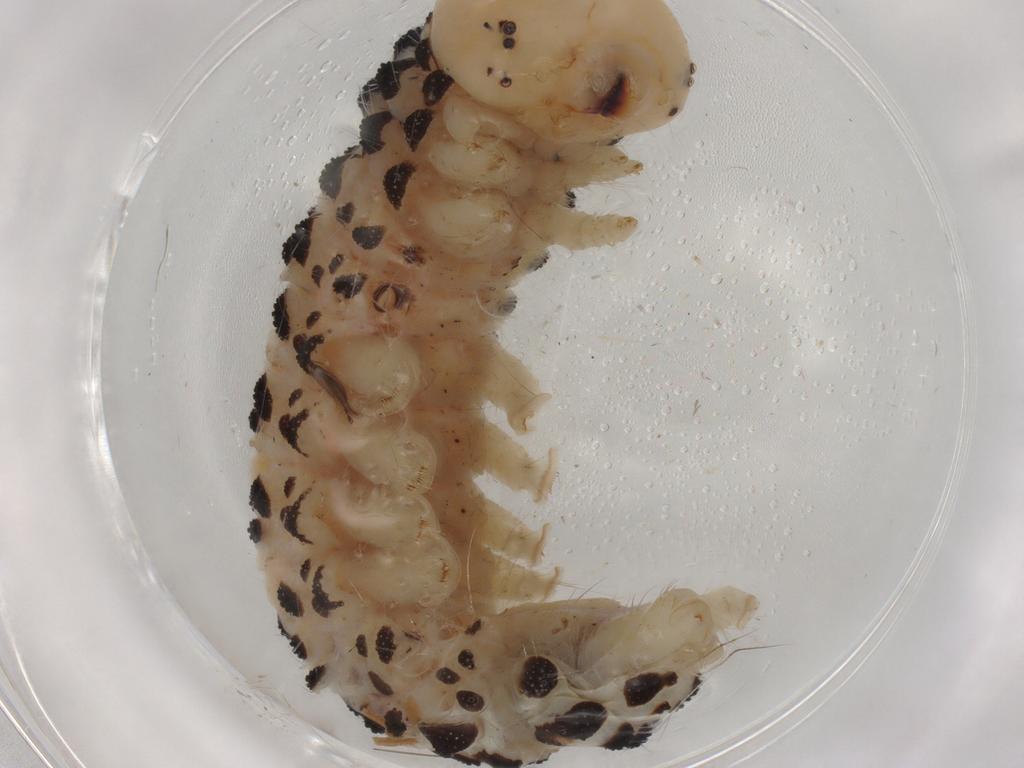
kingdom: Animalia
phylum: Arthropoda
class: Insecta
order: Lepidoptera
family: Erebidae
